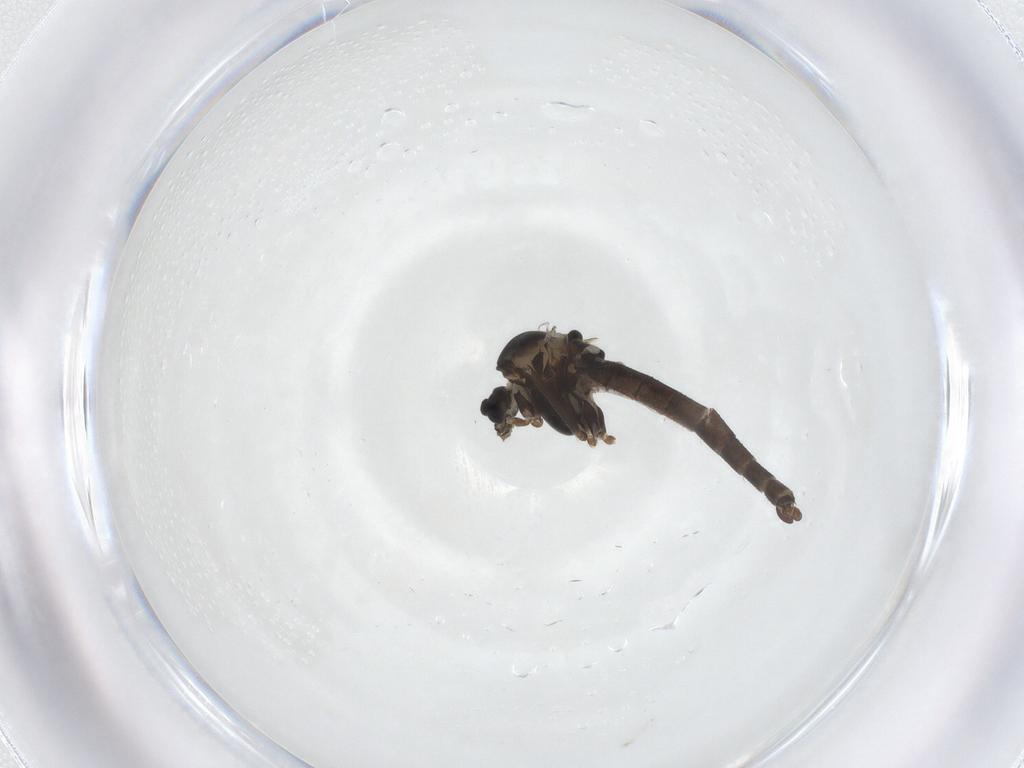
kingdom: Animalia
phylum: Arthropoda
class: Insecta
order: Diptera
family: Chironomidae
